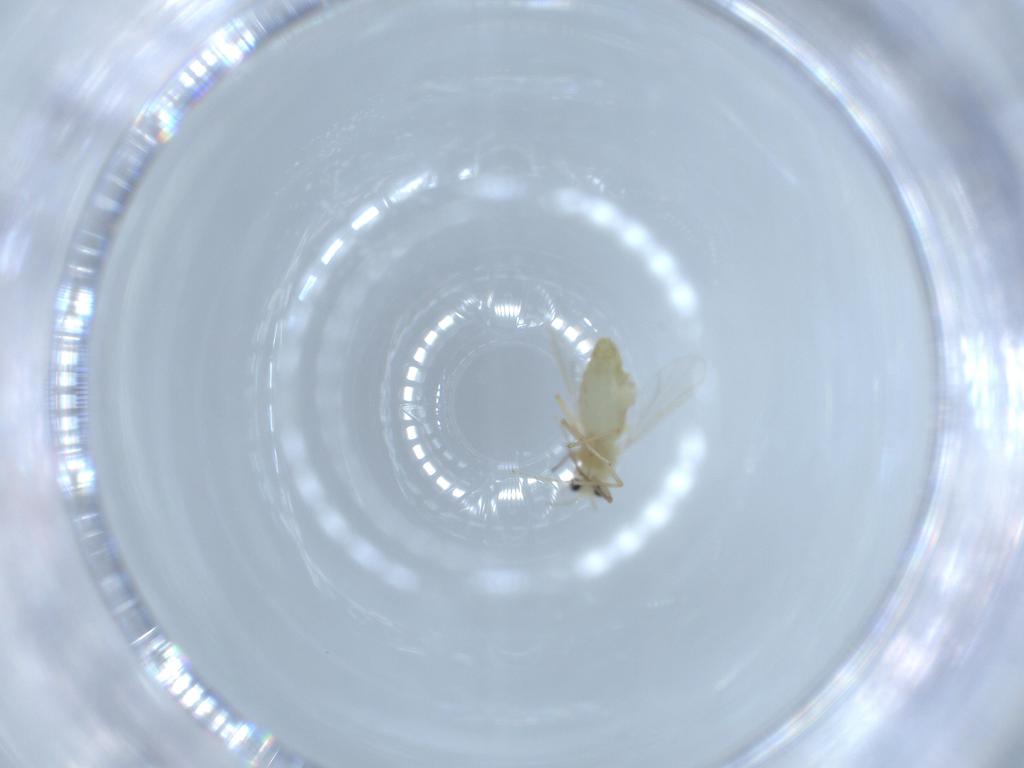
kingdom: Animalia
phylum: Arthropoda
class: Insecta
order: Diptera
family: Chironomidae
